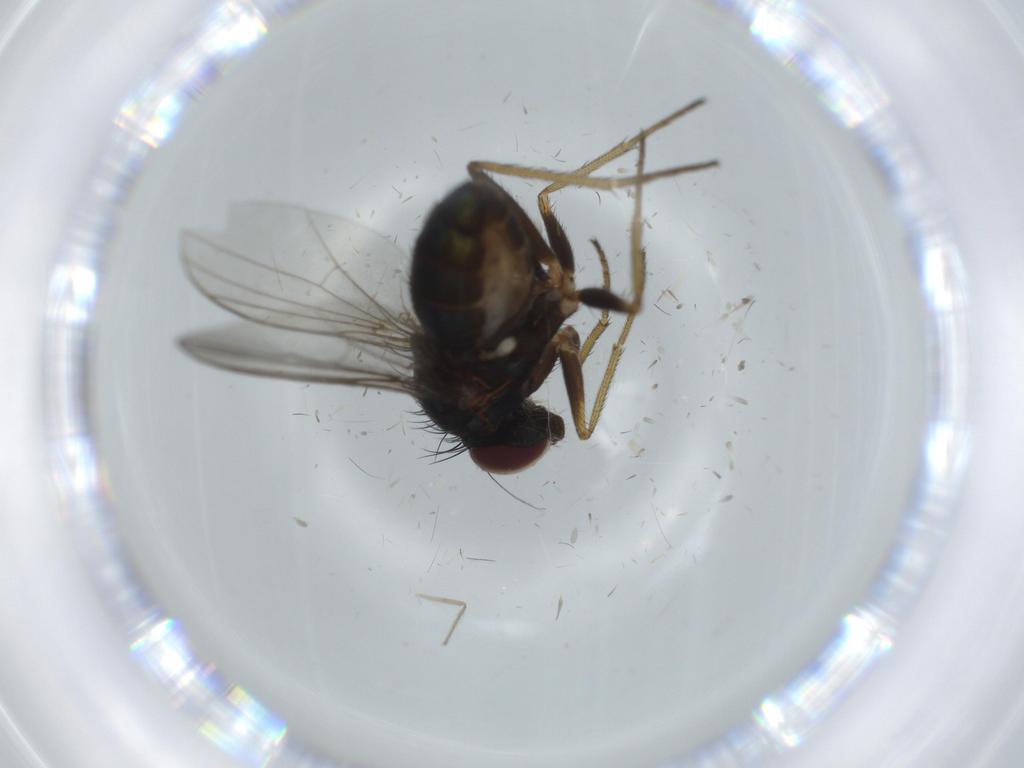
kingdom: Animalia
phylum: Arthropoda
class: Insecta
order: Diptera
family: Milichiidae
